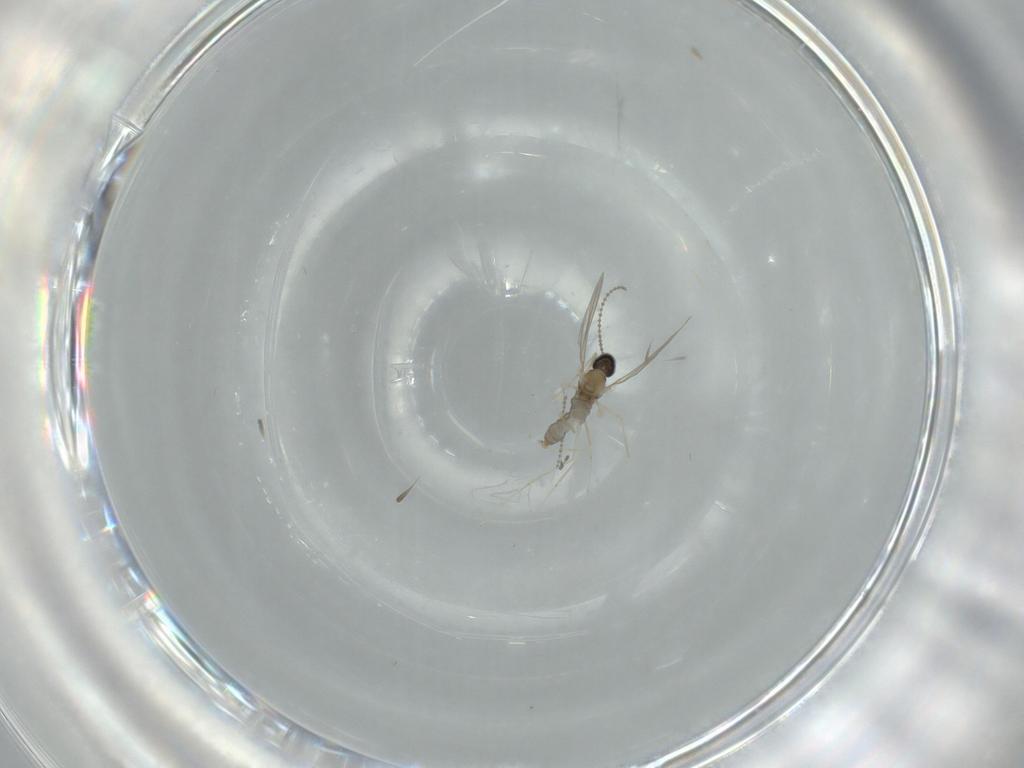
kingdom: Animalia
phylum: Arthropoda
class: Insecta
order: Diptera
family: Cecidomyiidae
